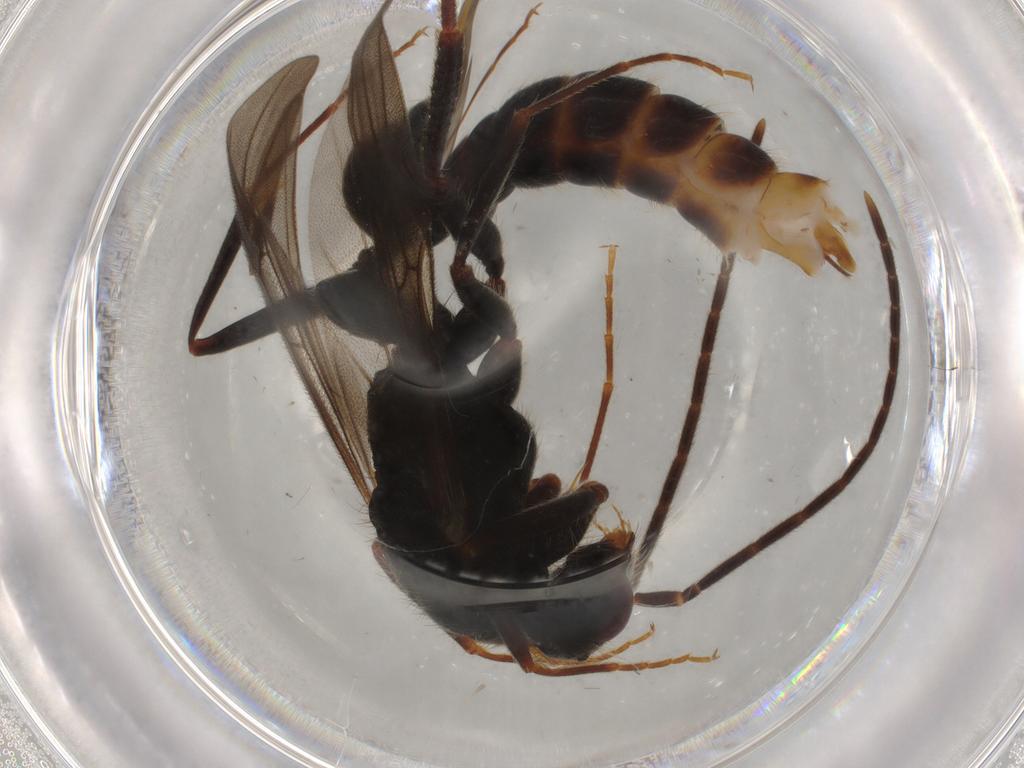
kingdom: Animalia
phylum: Arthropoda
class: Insecta
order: Hymenoptera
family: Formicidae
